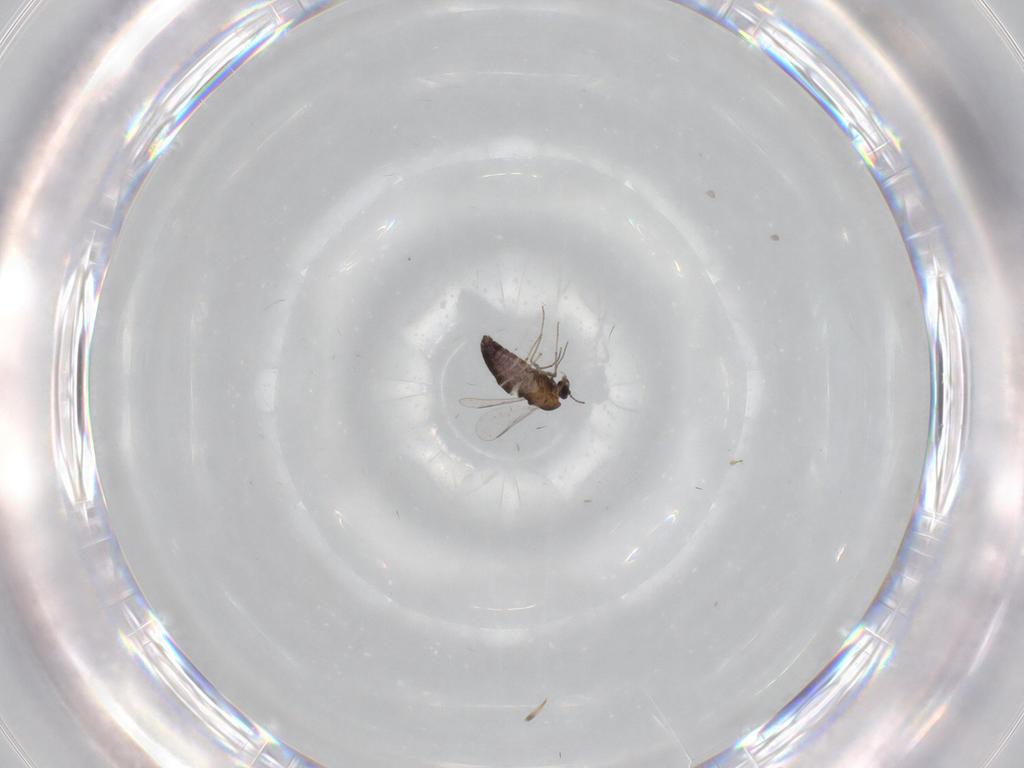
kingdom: Animalia
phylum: Arthropoda
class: Insecta
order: Diptera
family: Chironomidae
